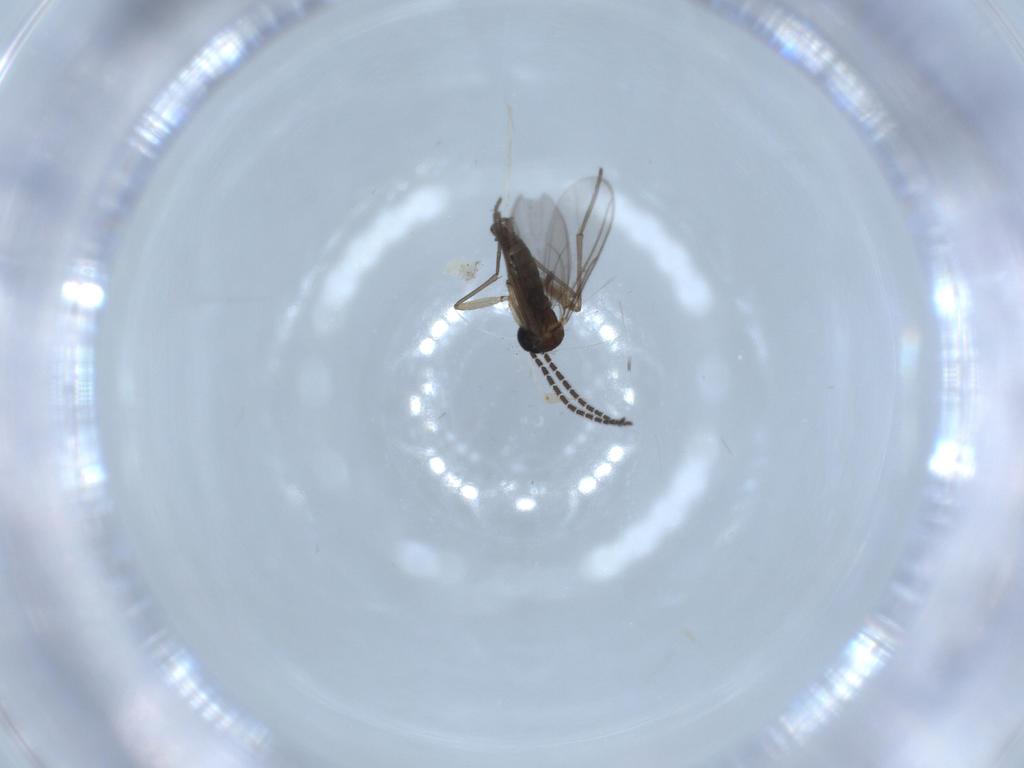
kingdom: Animalia
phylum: Arthropoda
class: Insecta
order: Diptera
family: Sciaridae
